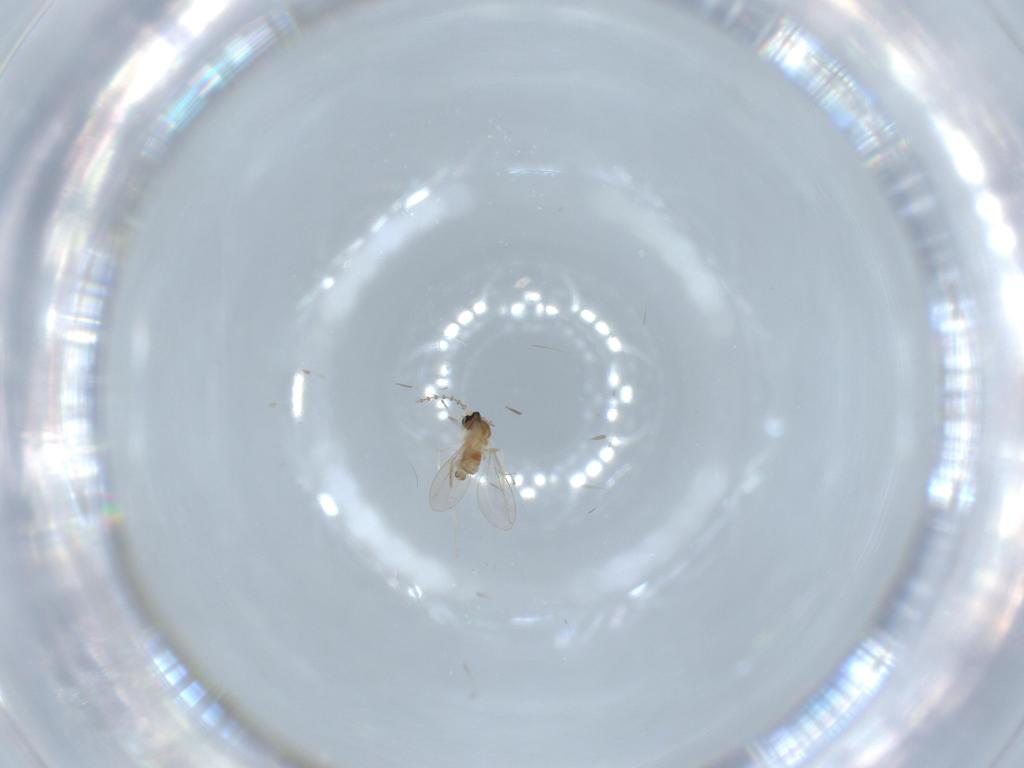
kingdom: Animalia
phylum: Arthropoda
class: Insecta
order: Diptera
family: Cecidomyiidae
